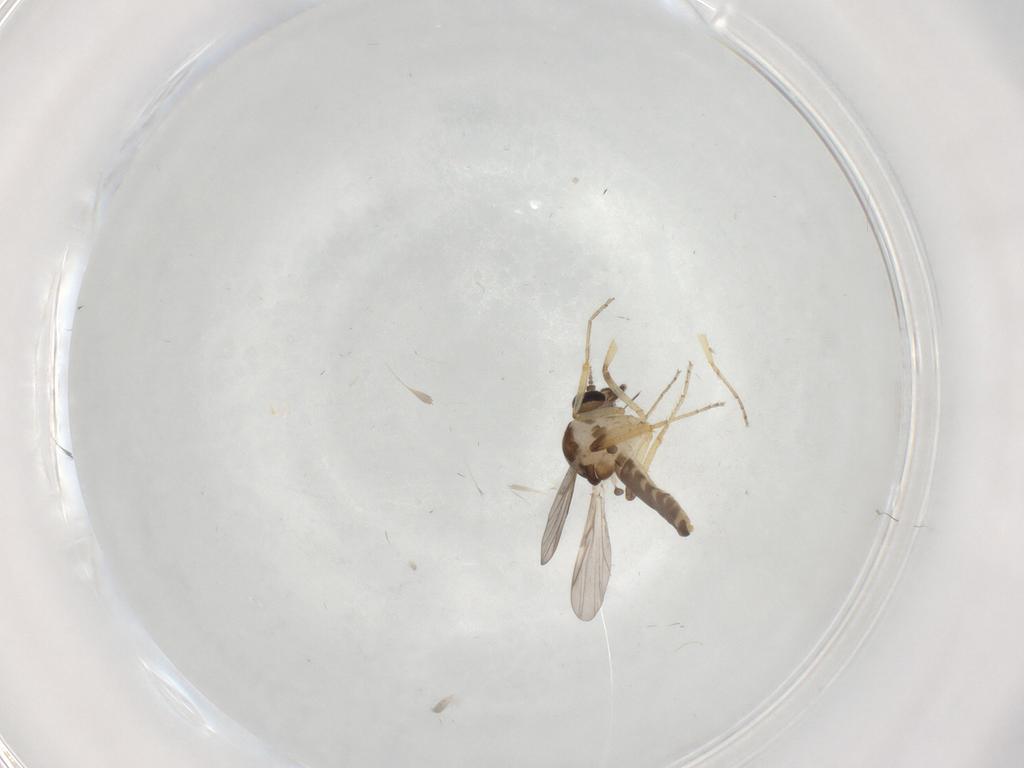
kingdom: Animalia
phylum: Arthropoda
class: Insecta
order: Diptera
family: Cecidomyiidae
